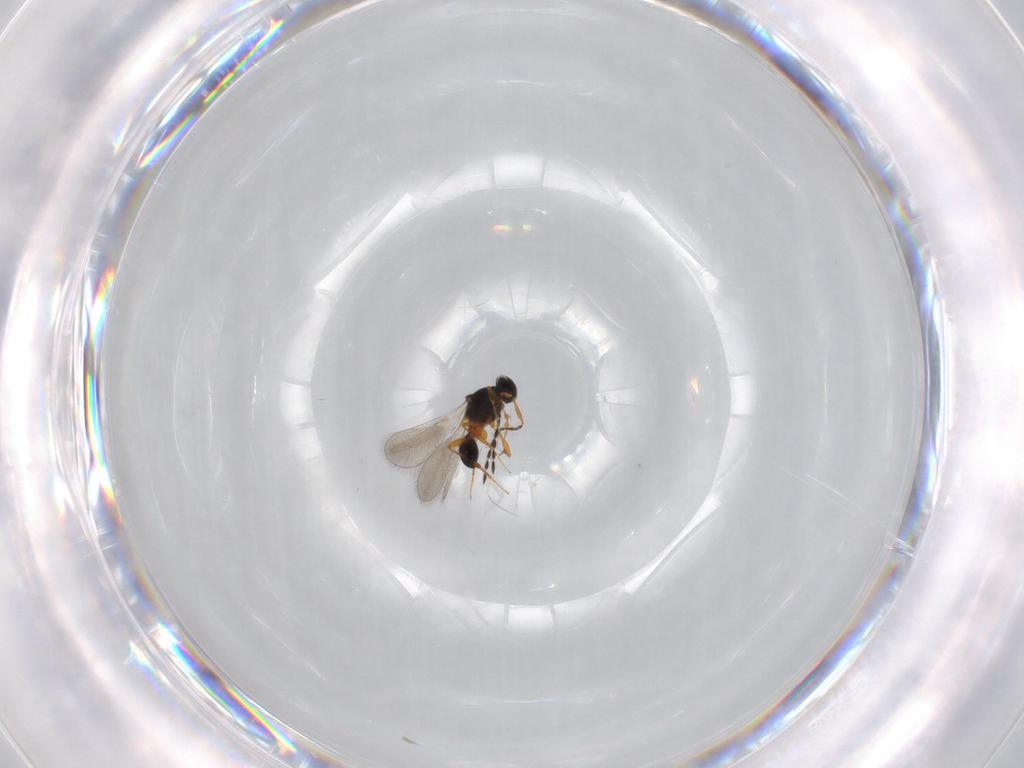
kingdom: Animalia
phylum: Arthropoda
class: Insecta
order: Hymenoptera
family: Platygastridae
